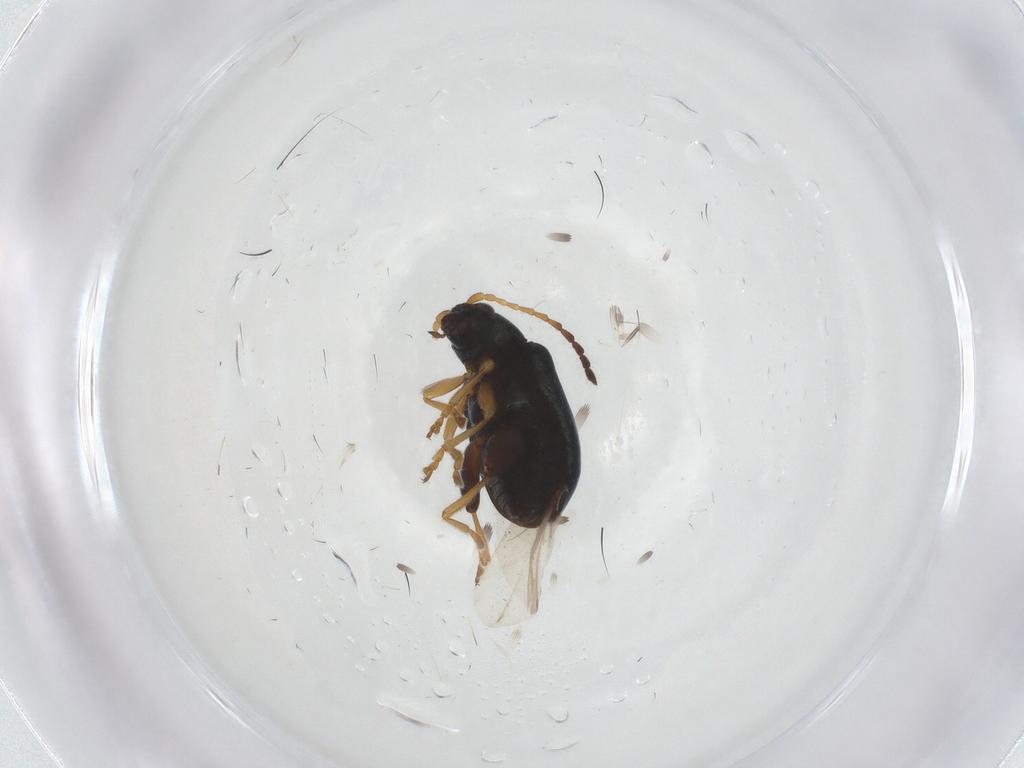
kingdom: Animalia
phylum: Arthropoda
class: Insecta
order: Coleoptera
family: Chrysomelidae
